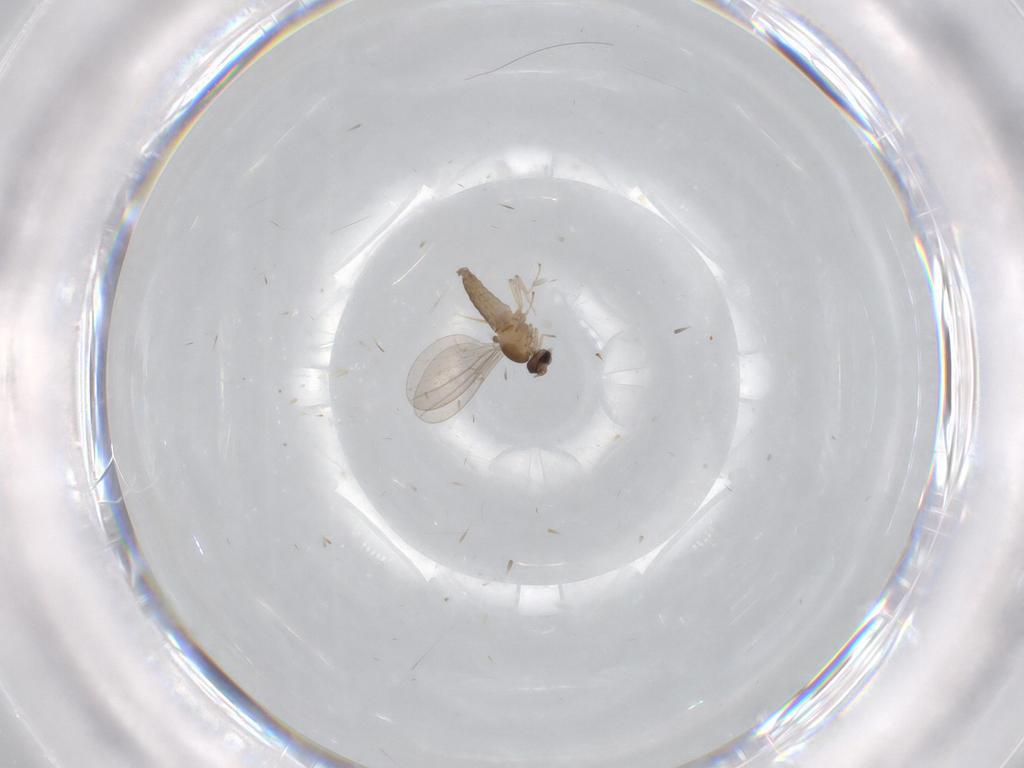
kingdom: Animalia
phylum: Arthropoda
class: Insecta
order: Diptera
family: Cecidomyiidae
